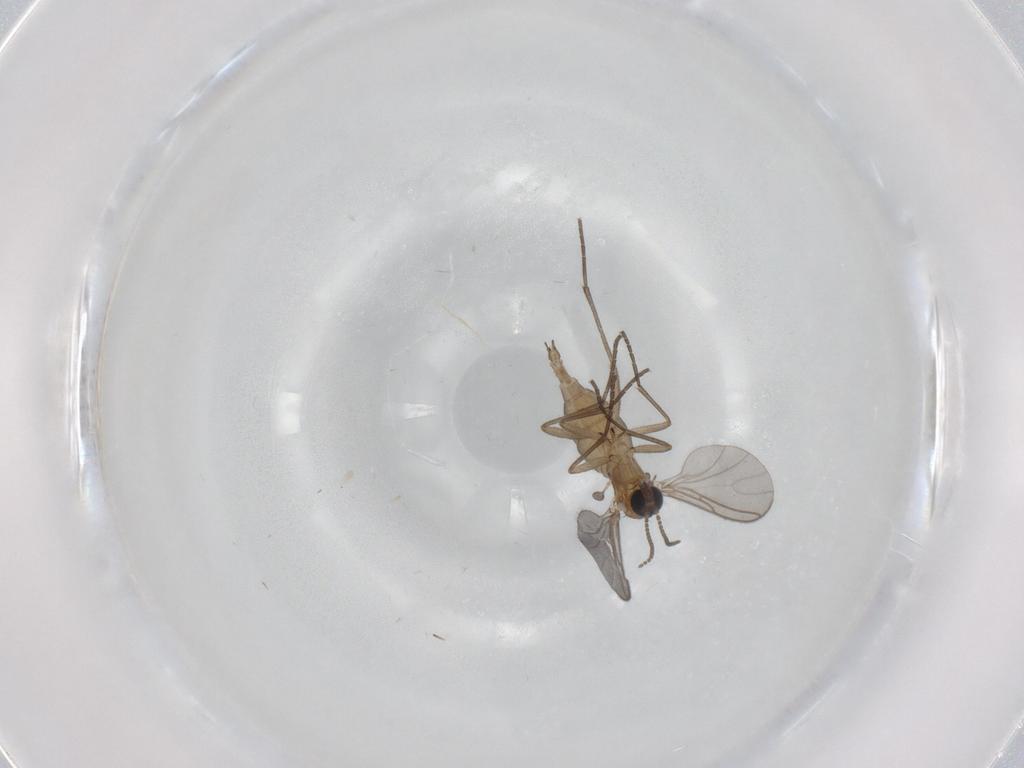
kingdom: Animalia
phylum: Arthropoda
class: Insecta
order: Diptera
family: Sciaridae
